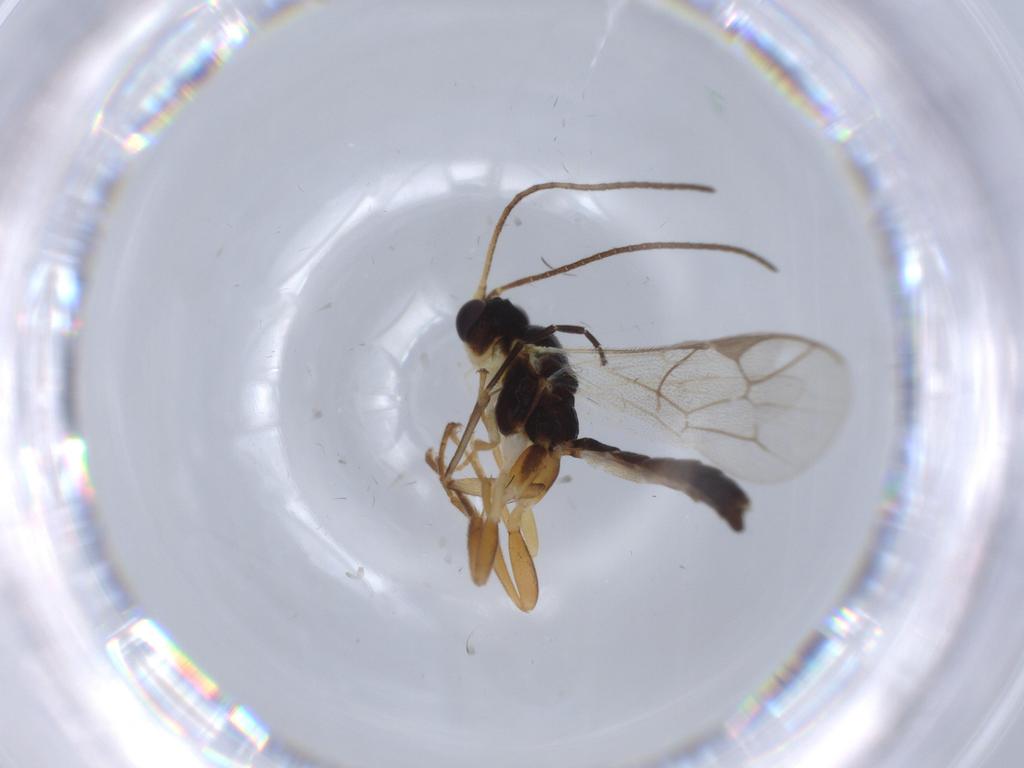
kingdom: Animalia
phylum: Arthropoda
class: Insecta
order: Hymenoptera
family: Ichneumonidae
